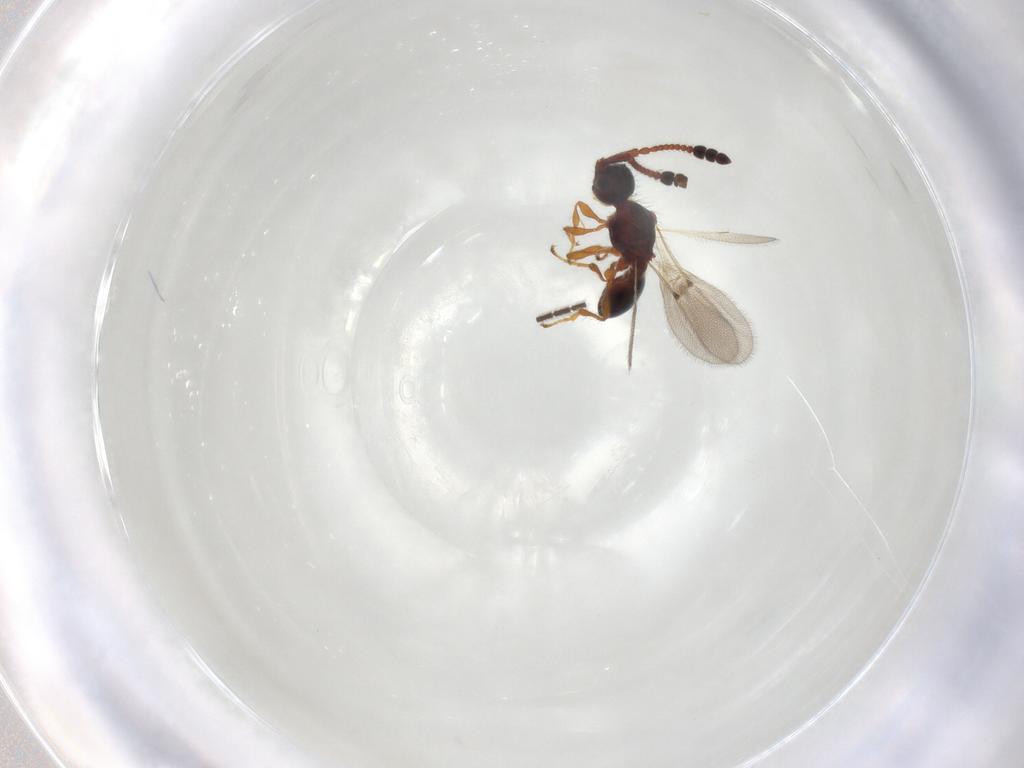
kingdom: Animalia
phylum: Arthropoda
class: Insecta
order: Hymenoptera
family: Diapriidae
